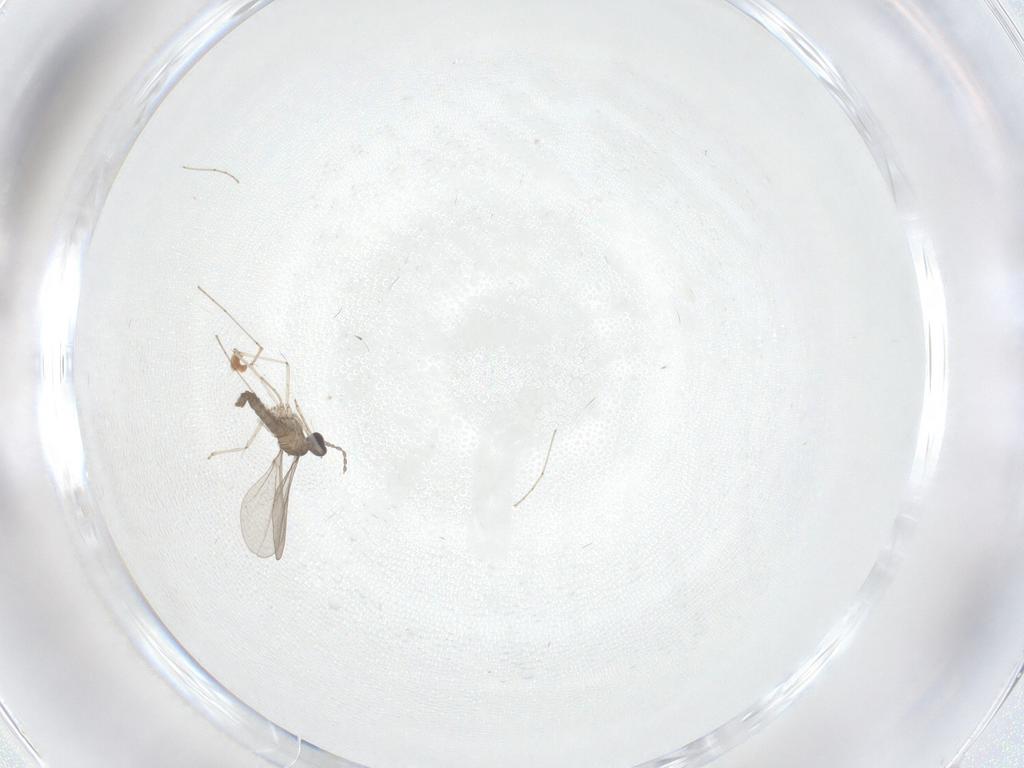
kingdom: Animalia
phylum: Arthropoda
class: Insecta
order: Diptera
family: Cecidomyiidae
